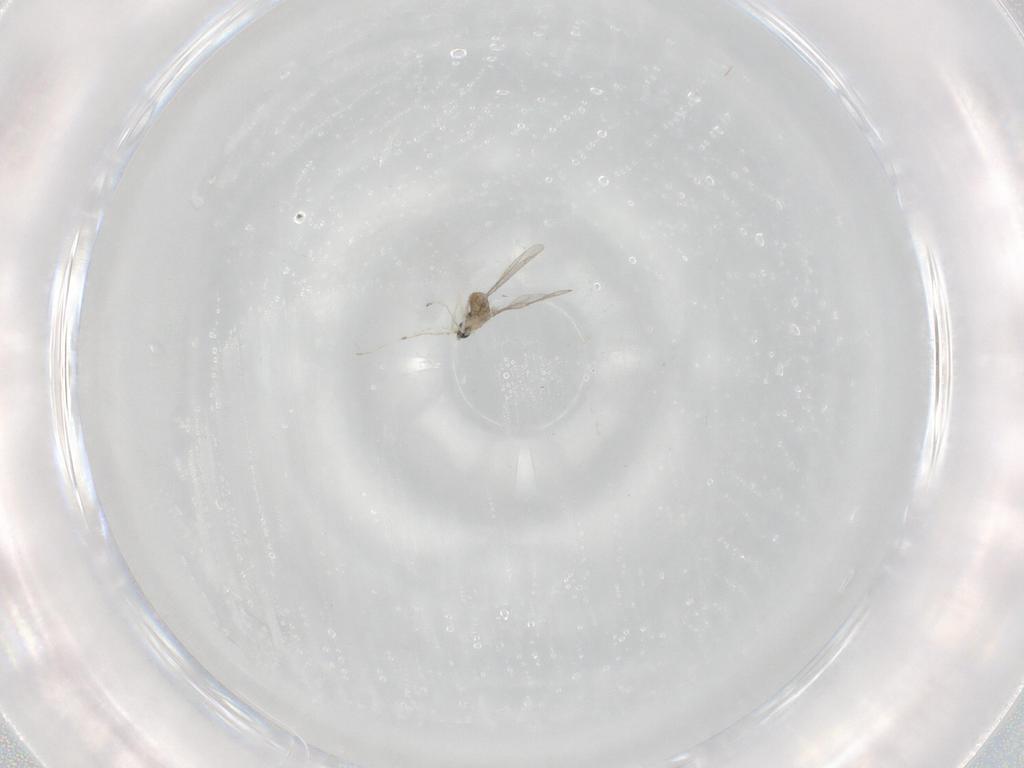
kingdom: Animalia
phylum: Arthropoda
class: Insecta
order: Diptera
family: Cecidomyiidae
